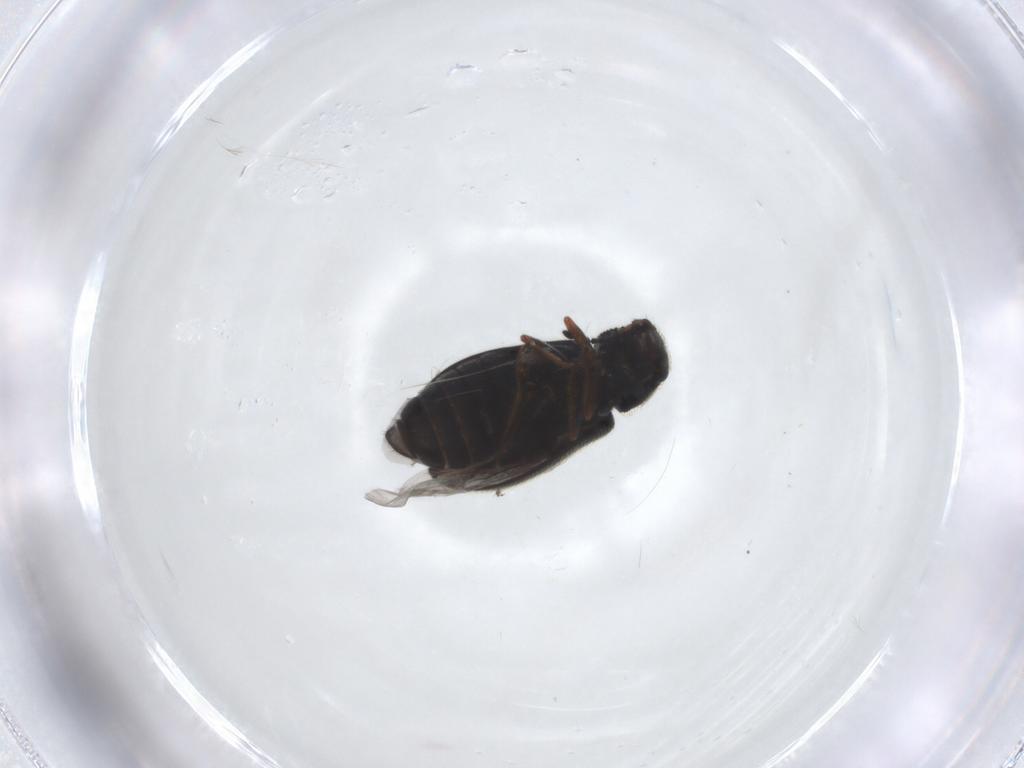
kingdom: Animalia
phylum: Arthropoda
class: Insecta
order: Coleoptera
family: Melyridae
